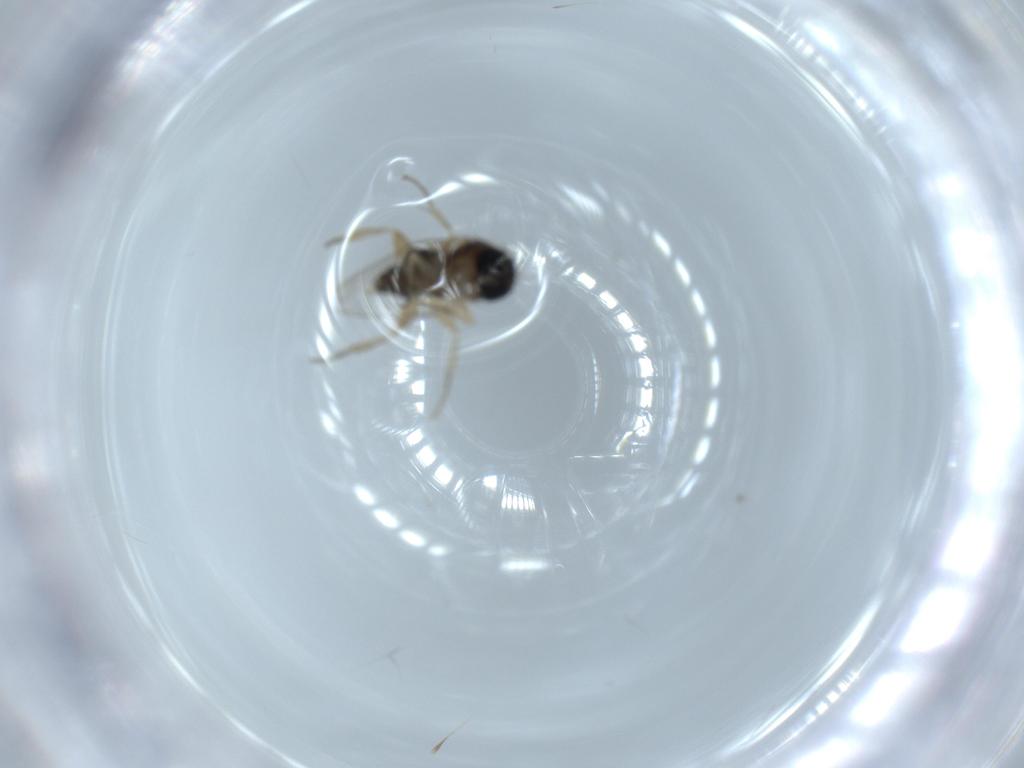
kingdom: Animalia
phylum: Arthropoda
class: Insecta
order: Diptera
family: Phoridae
